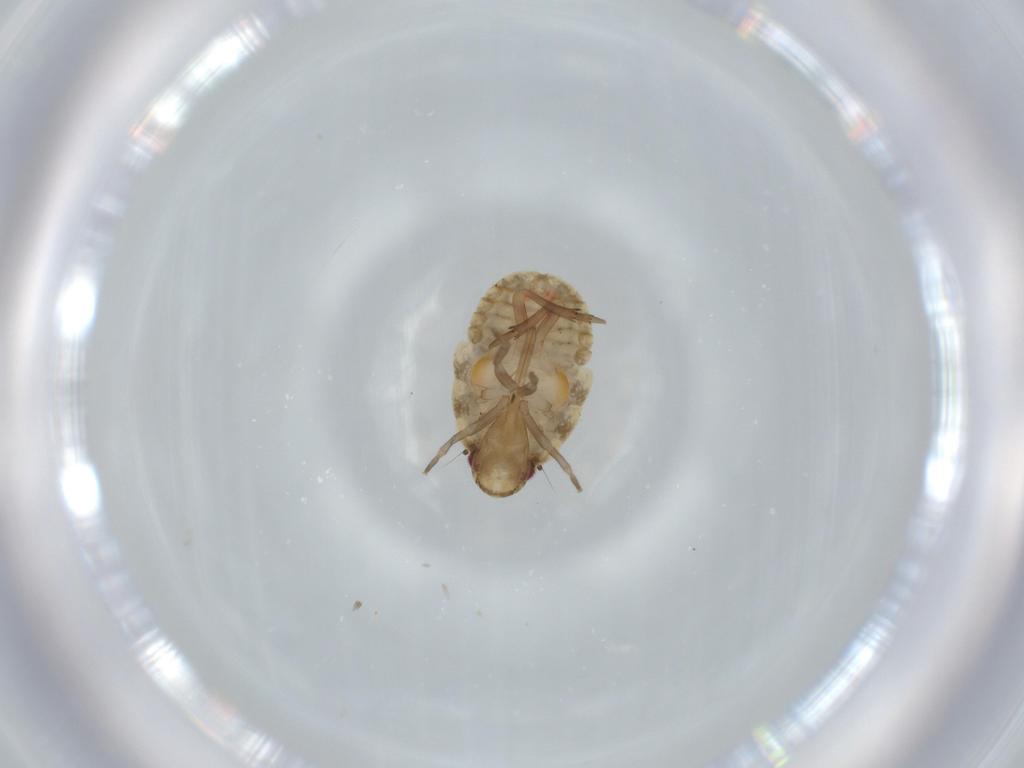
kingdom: Animalia
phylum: Arthropoda
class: Insecta
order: Hemiptera
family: Flatidae
